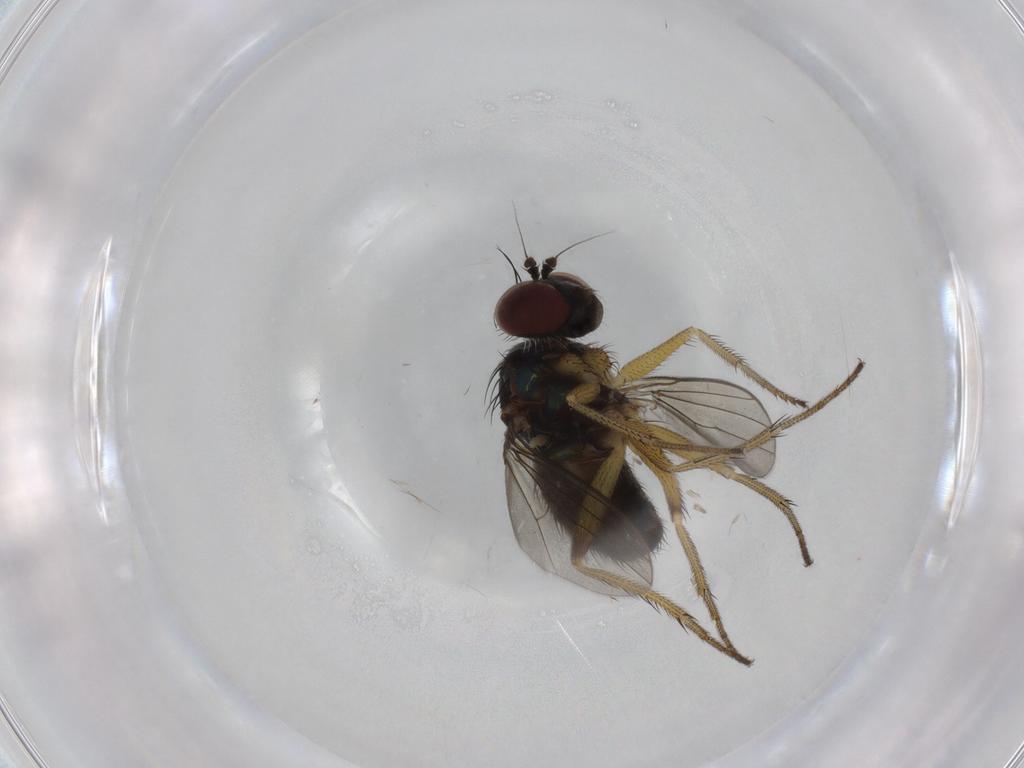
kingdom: Animalia
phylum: Arthropoda
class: Insecta
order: Diptera
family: Dolichopodidae
